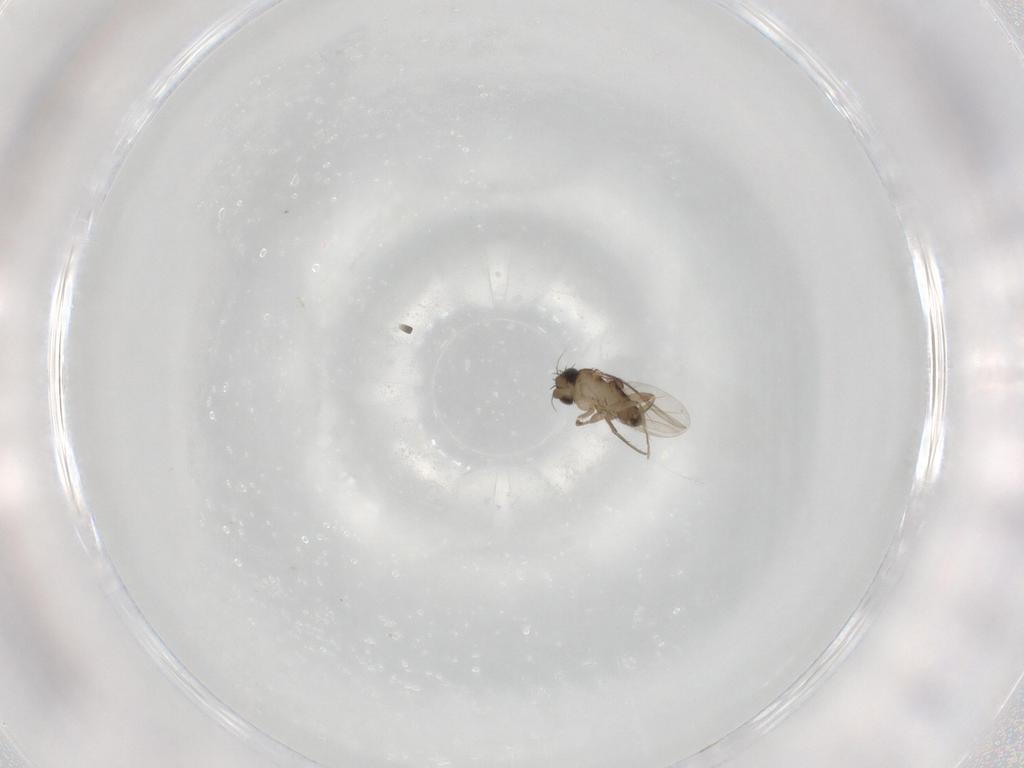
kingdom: Animalia
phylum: Arthropoda
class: Insecta
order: Diptera
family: Phoridae
